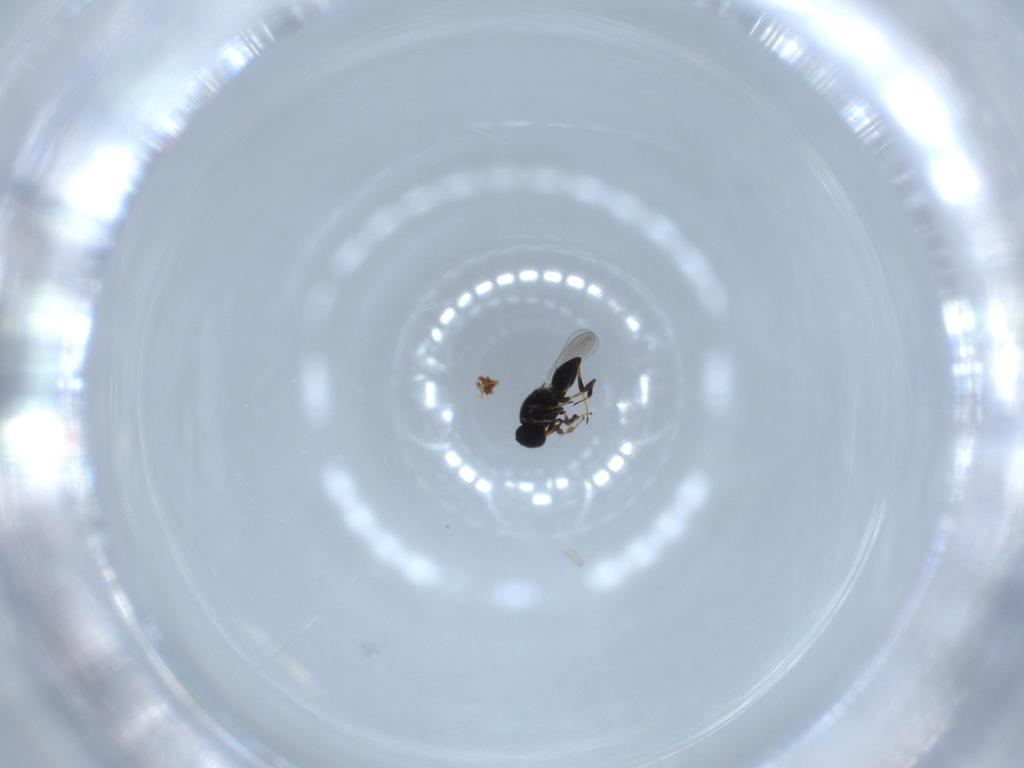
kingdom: Animalia
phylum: Arthropoda
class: Insecta
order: Hymenoptera
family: Platygastridae
